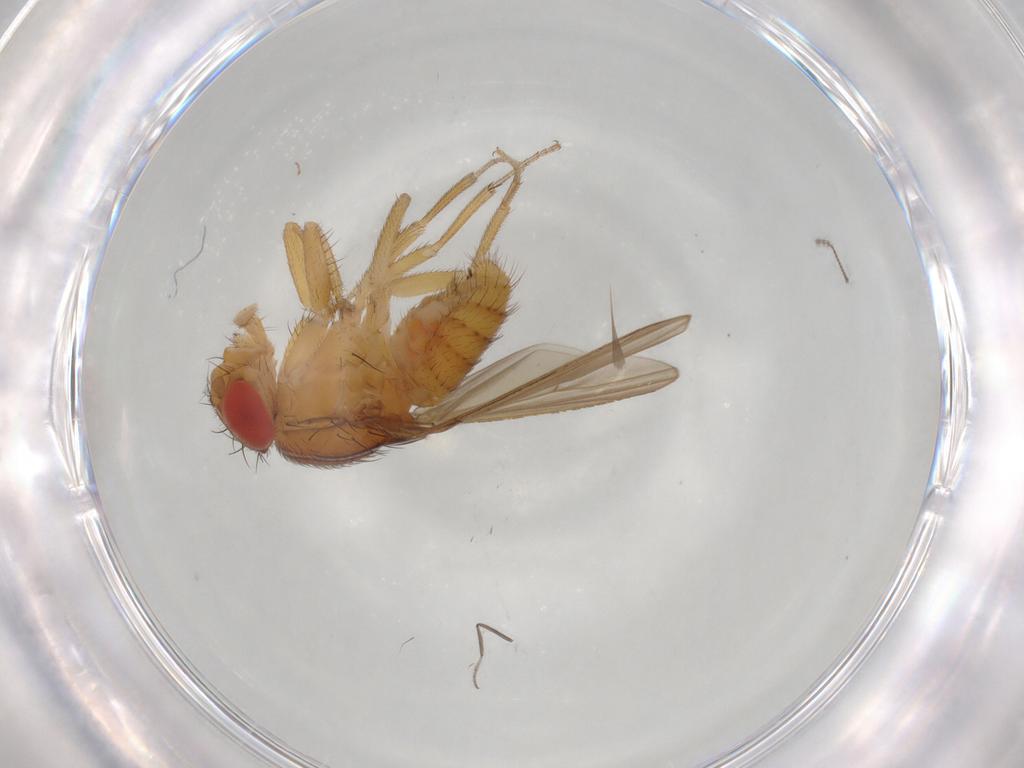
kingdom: Animalia
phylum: Arthropoda
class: Insecta
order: Diptera
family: Drosophilidae
